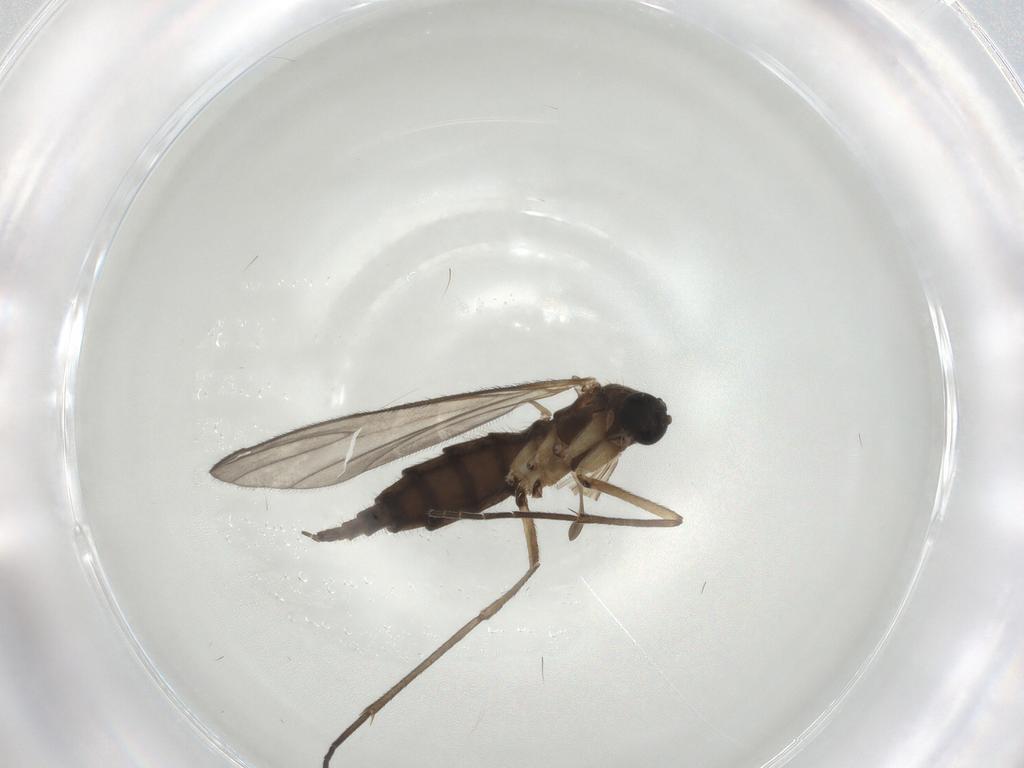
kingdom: Animalia
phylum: Arthropoda
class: Insecta
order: Diptera
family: Sciaridae
